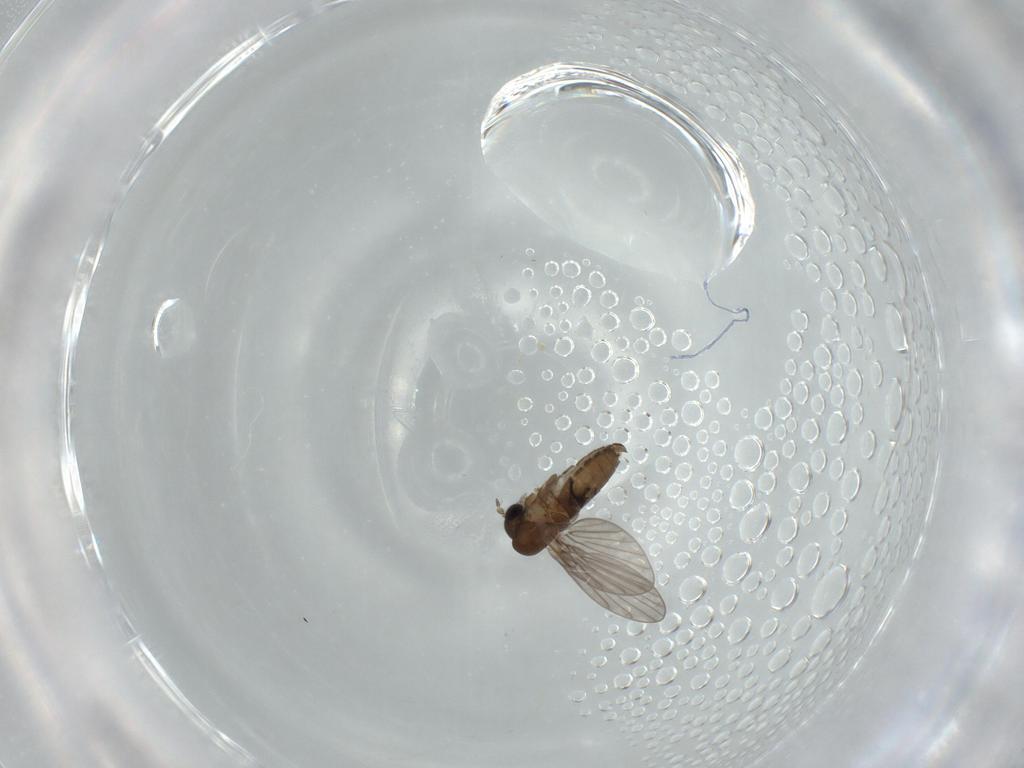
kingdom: Animalia
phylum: Arthropoda
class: Insecta
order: Diptera
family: Psychodidae
